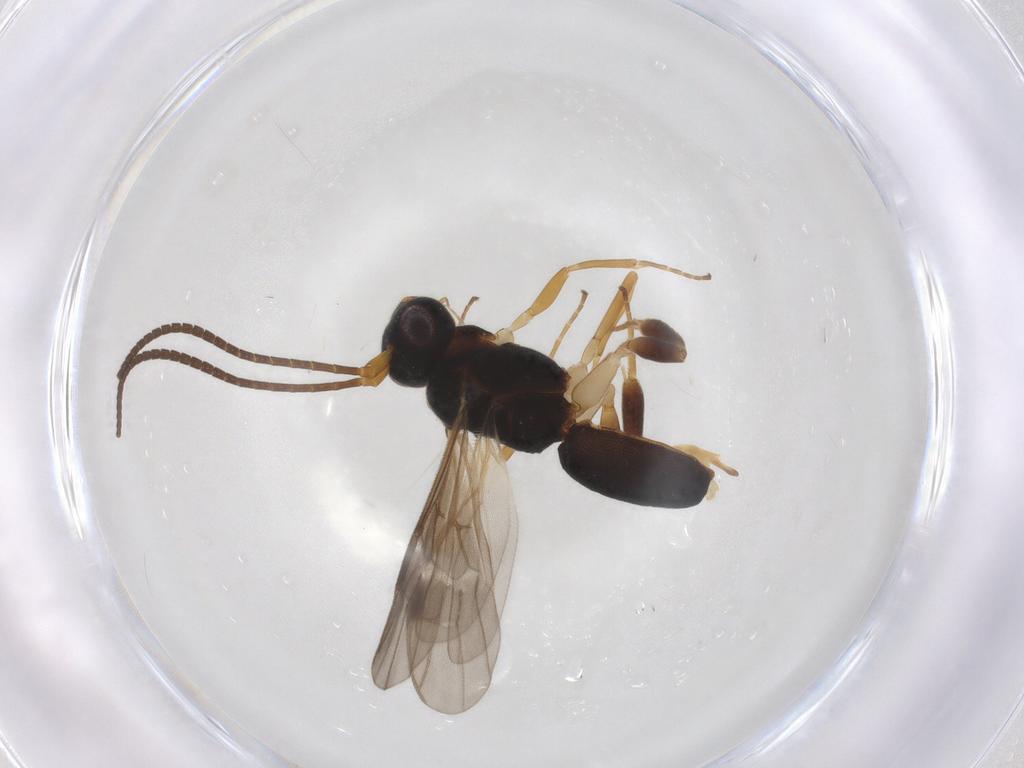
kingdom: Animalia
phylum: Arthropoda
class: Insecta
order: Hymenoptera
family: Braconidae
